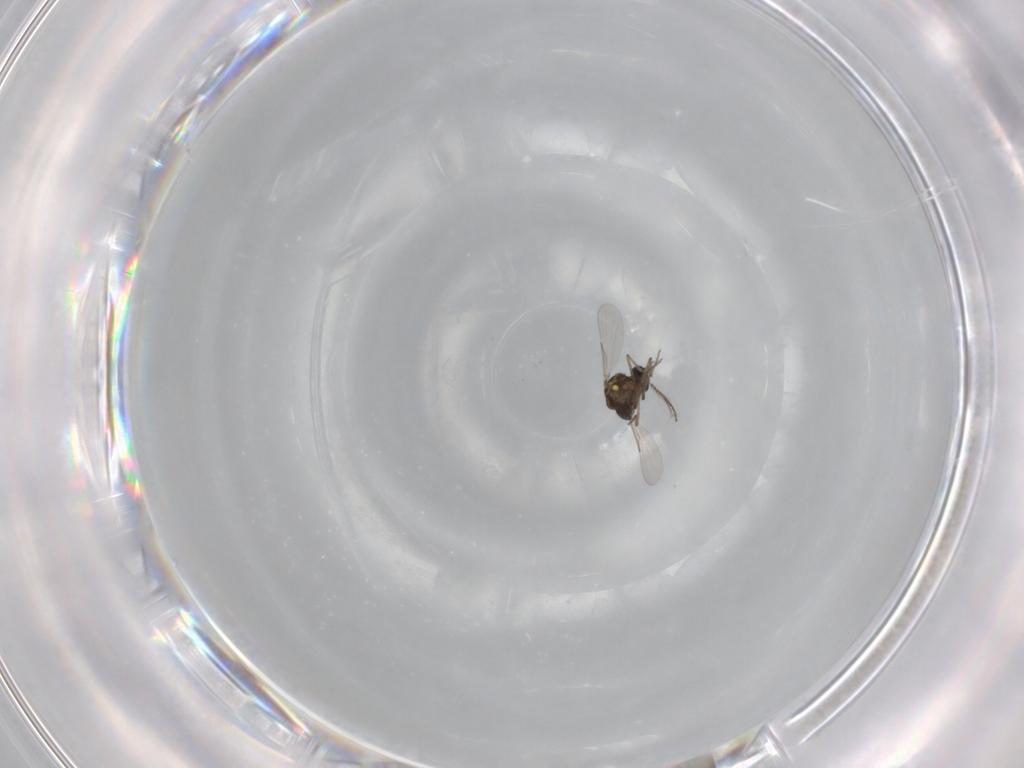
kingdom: Animalia
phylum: Arthropoda
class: Insecta
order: Diptera
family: Ceratopogonidae
